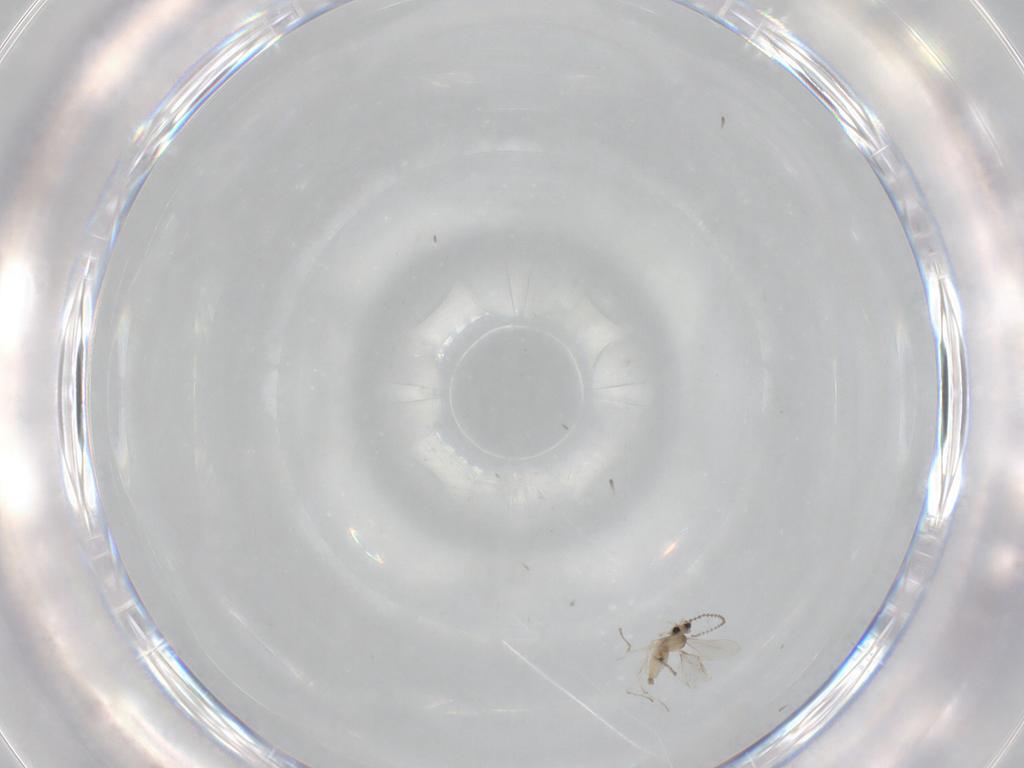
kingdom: Animalia
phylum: Arthropoda
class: Insecta
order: Diptera
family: Cecidomyiidae
